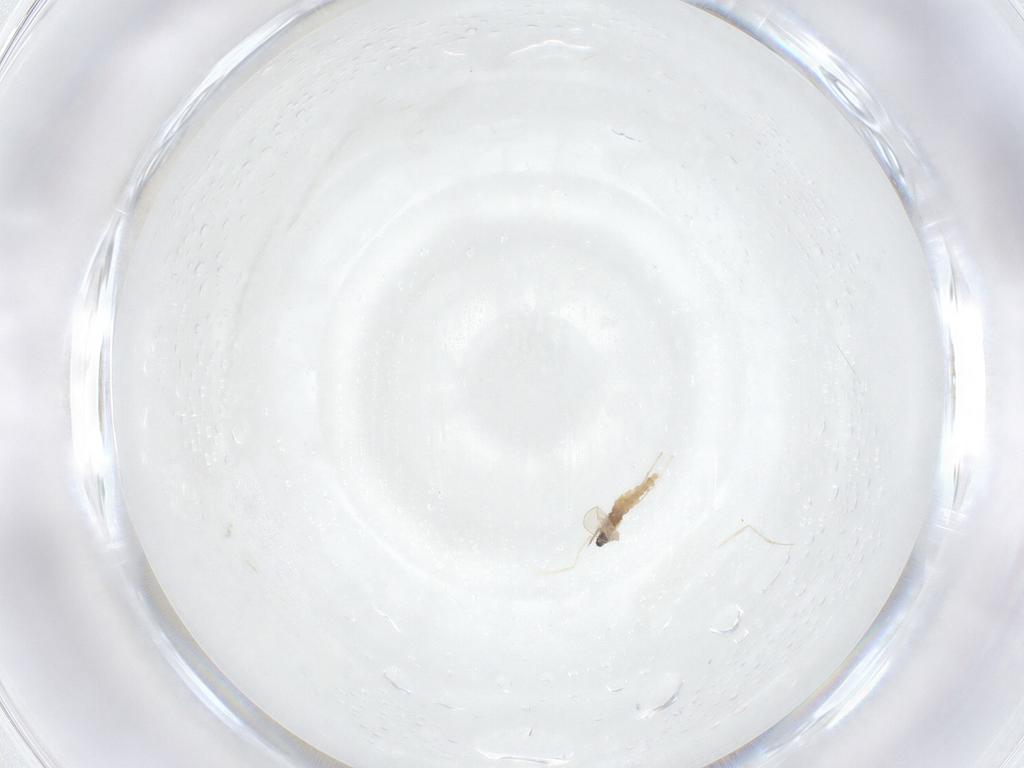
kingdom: Animalia
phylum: Arthropoda
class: Insecta
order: Diptera
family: Cecidomyiidae
